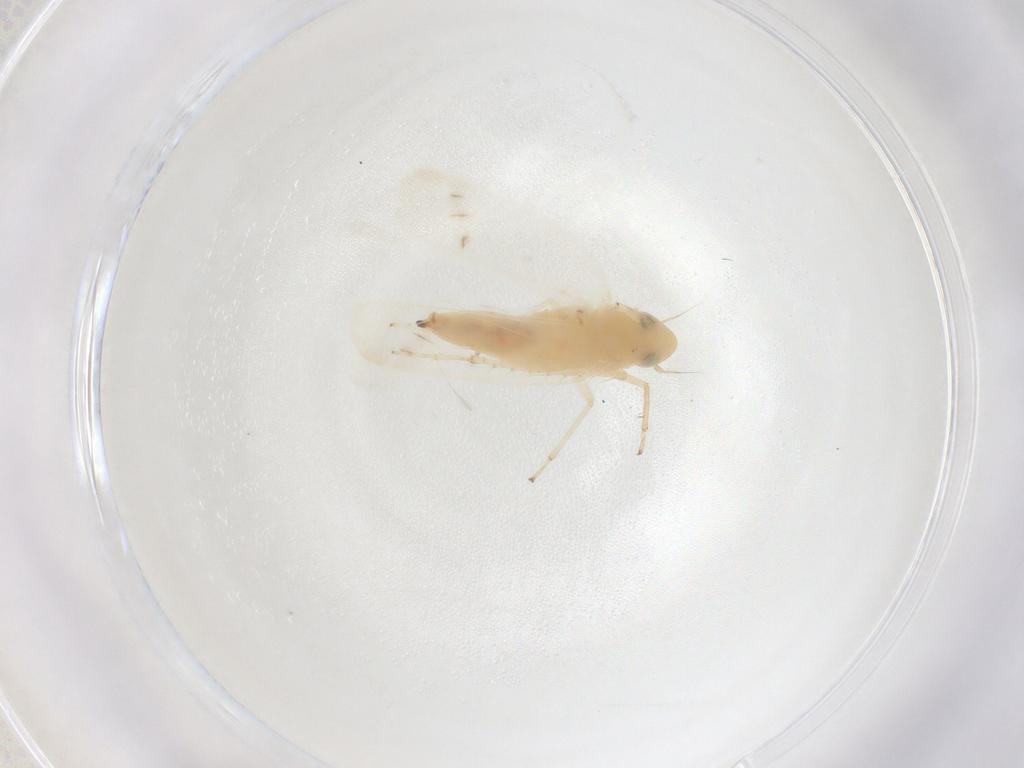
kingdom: Animalia
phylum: Arthropoda
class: Insecta
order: Hemiptera
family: Cicadellidae
